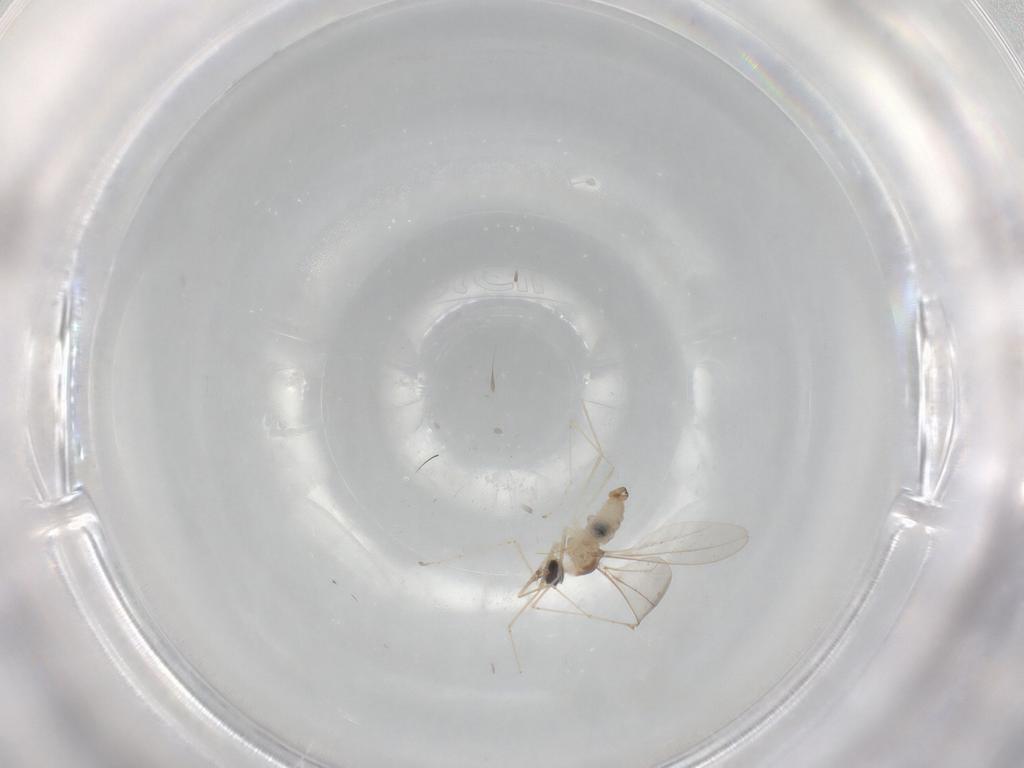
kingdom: Animalia
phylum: Arthropoda
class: Insecta
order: Diptera
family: Cecidomyiidae
